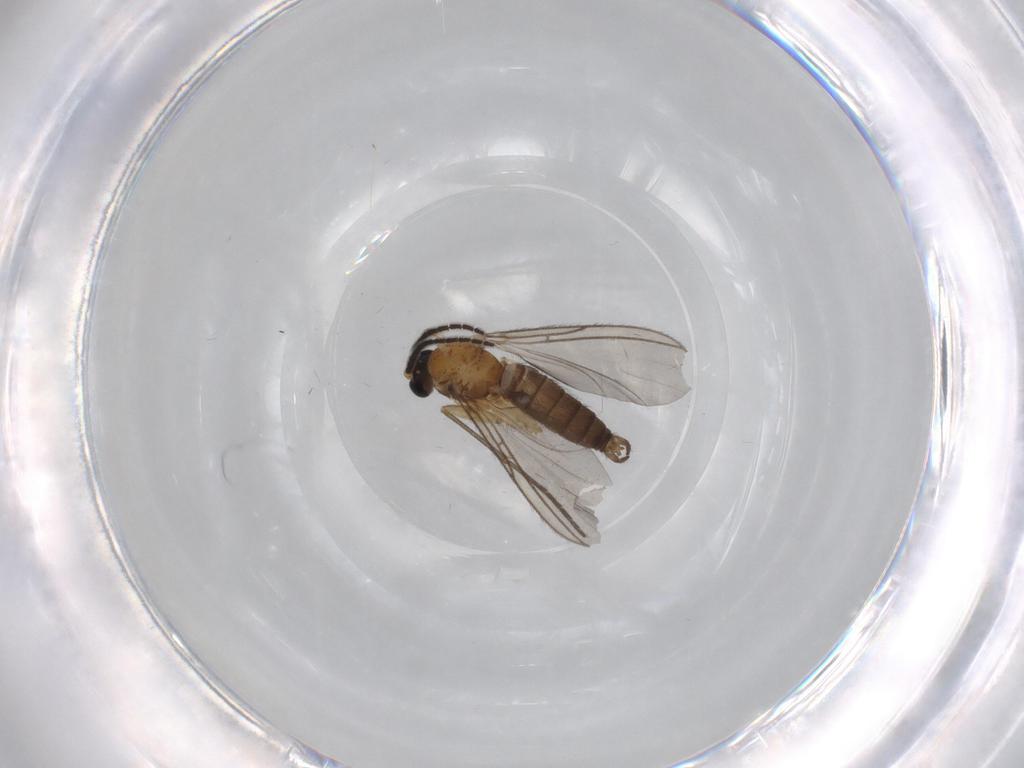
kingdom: Animalia
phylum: Arthropoda
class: Insecta
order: Diptera
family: Sciaridae
